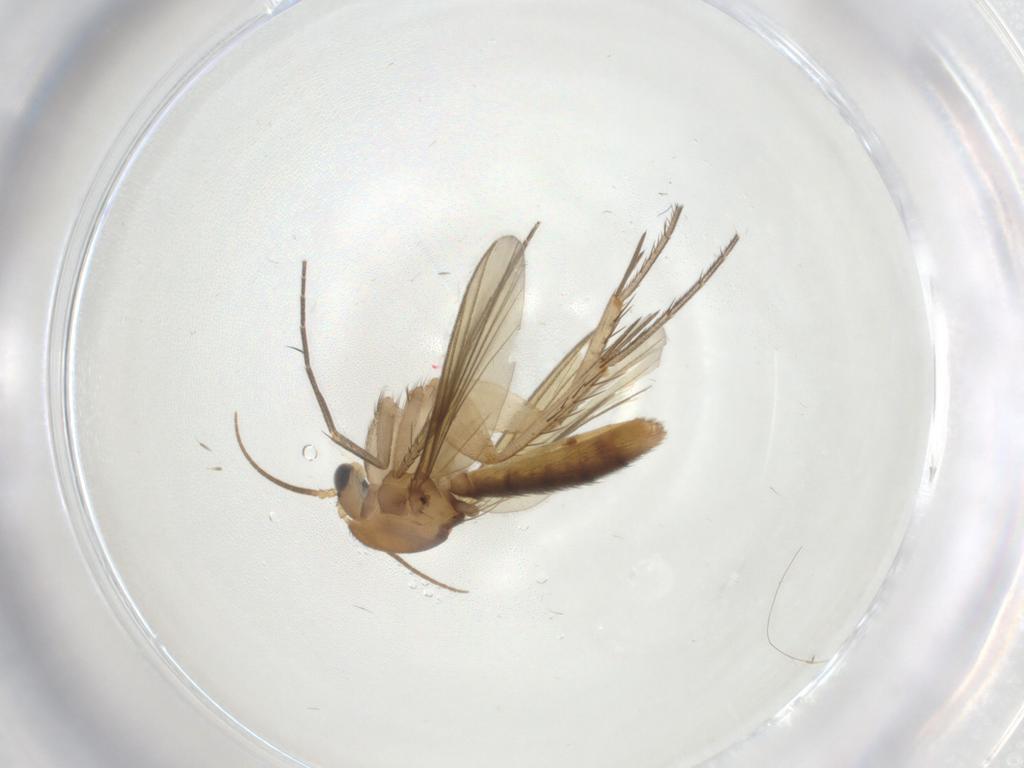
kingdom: Animalia
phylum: Arthropoda
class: Insecta
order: Diptera
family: Mycetophilidae
